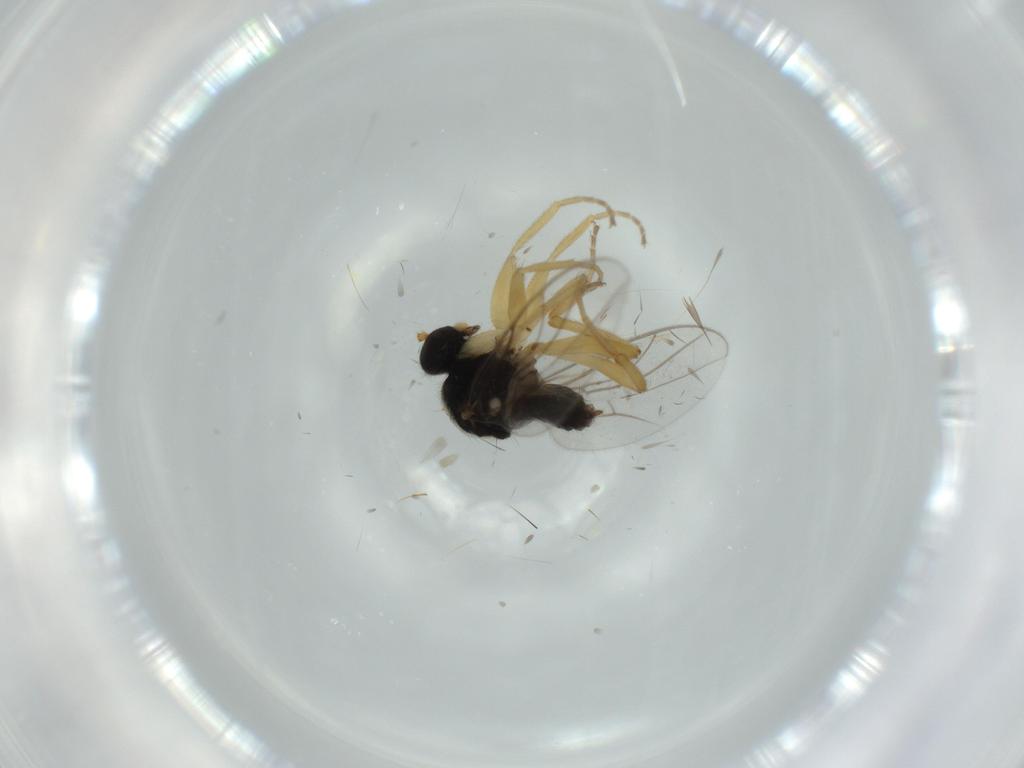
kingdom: Animalia
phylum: Arthropoda
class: Insecta
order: Diptera
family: Hybotidae
